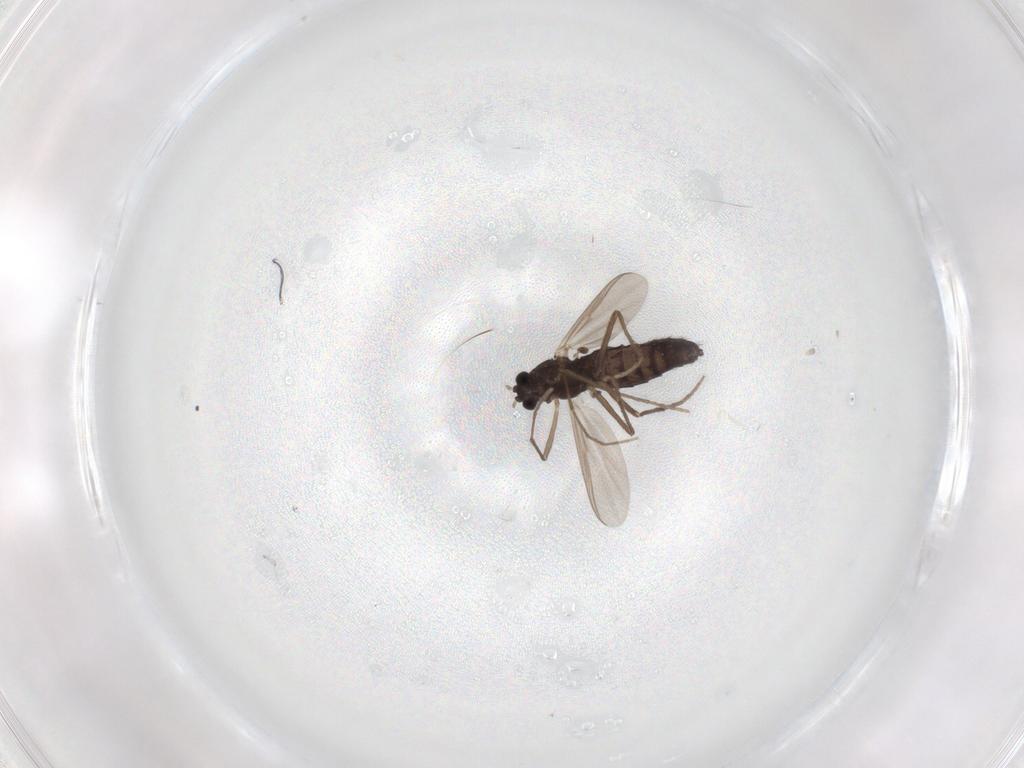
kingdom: Animalia
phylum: Arthropoda
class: Insecta
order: Diptera
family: Chironomidae
